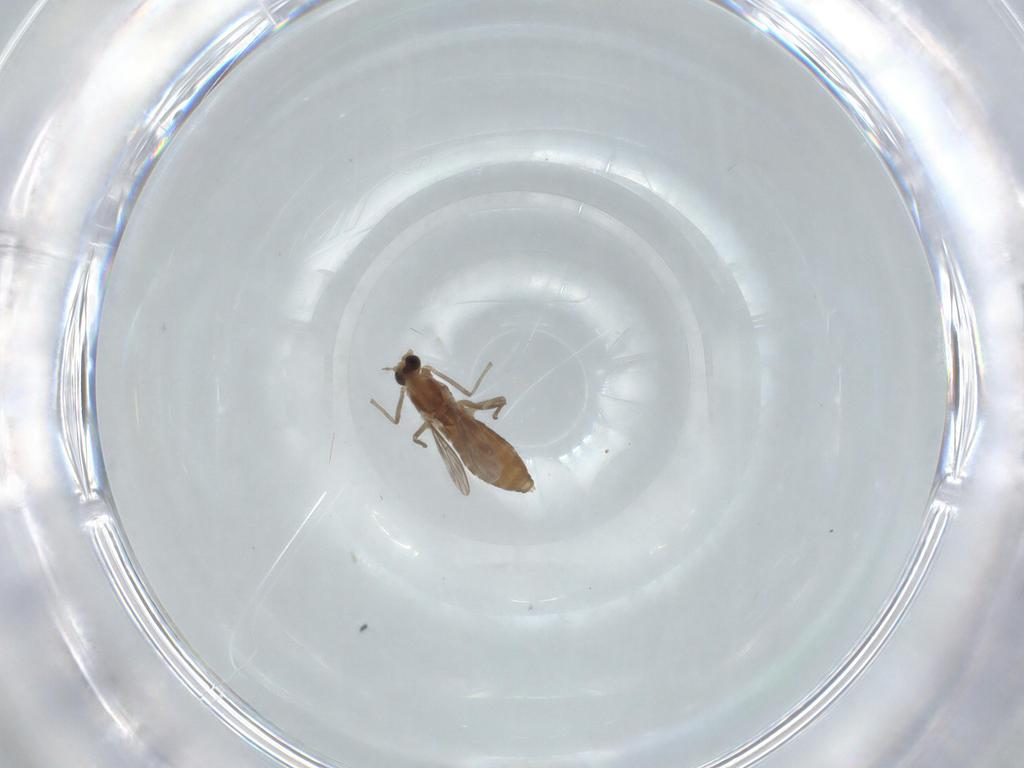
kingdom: Animalia
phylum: Arthropoda
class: Insecta
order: Diptera
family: Chironomidae
